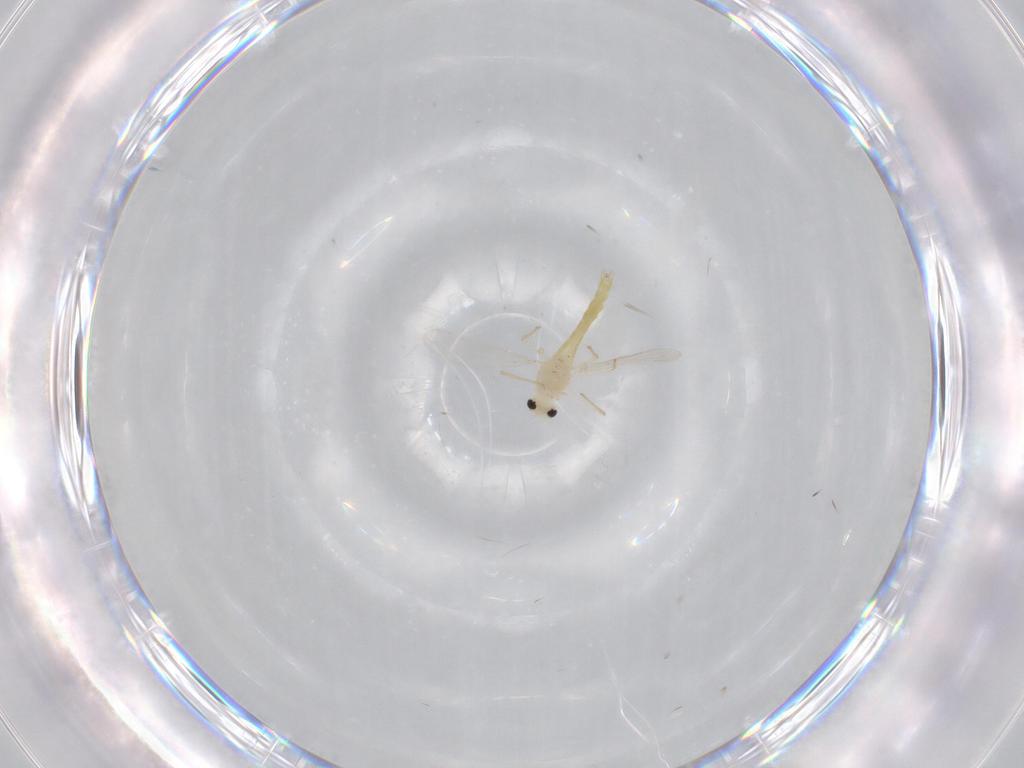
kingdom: Animalia
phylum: Arthropoda
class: Insecta
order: Diptera
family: Chironomidae
